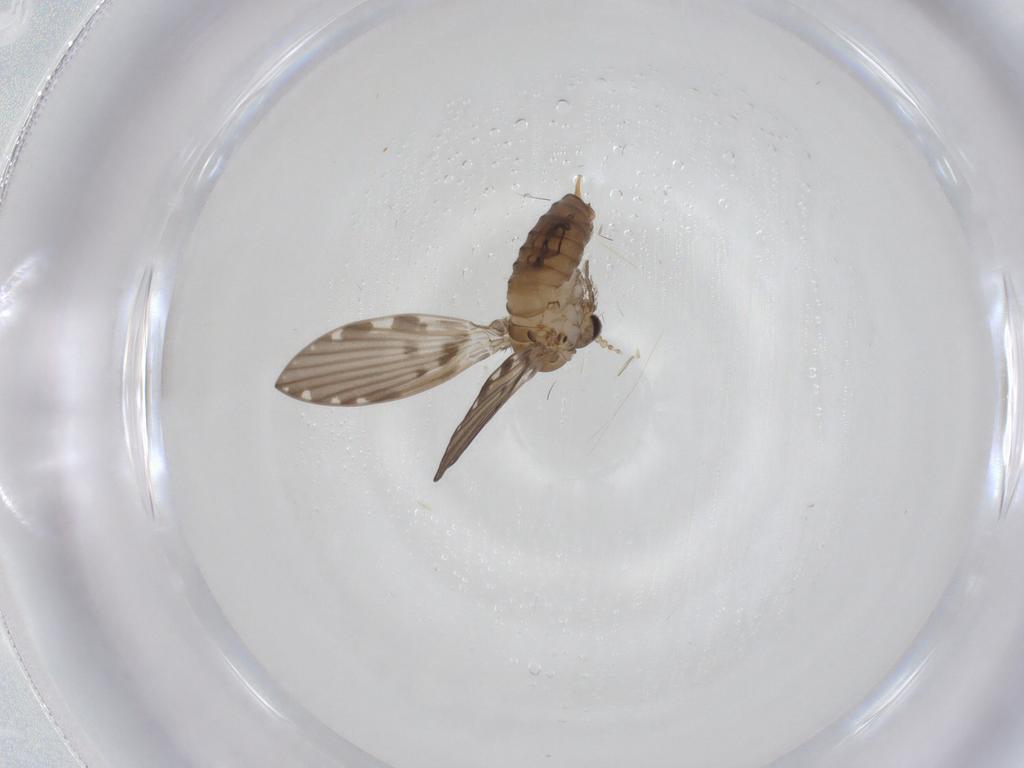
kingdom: Animalia
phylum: Arthropoda
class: Insecta
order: Diptera
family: Psychodidae
